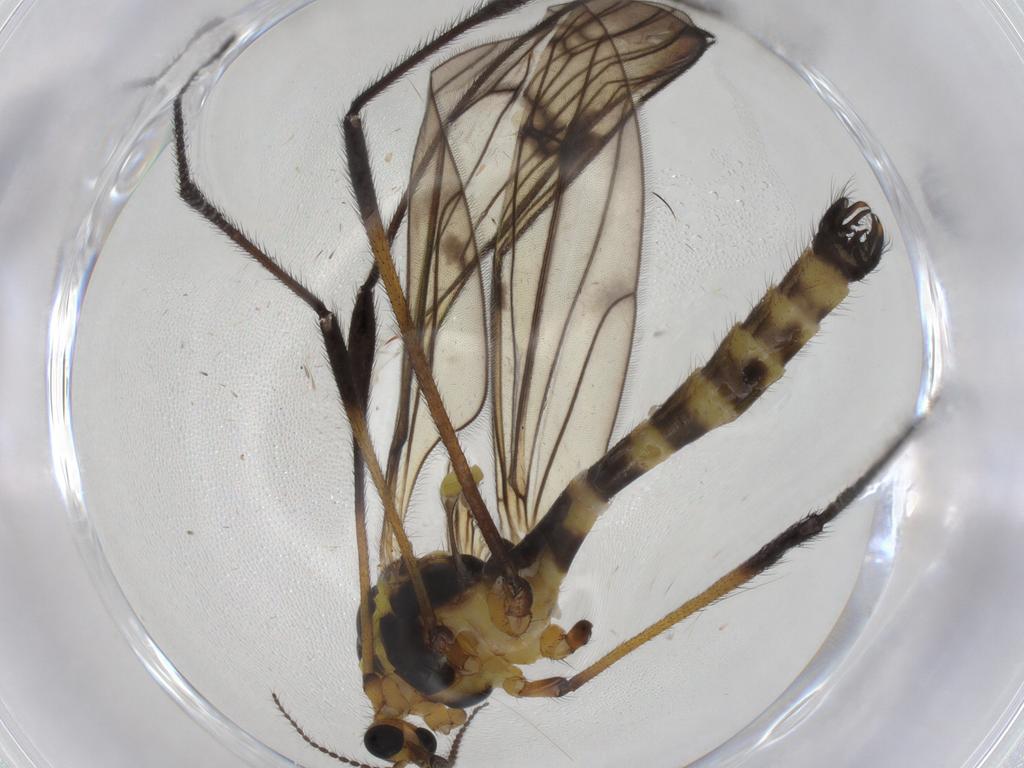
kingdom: Animalia
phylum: Arthropoda
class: Insecta
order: Diptera
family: Limoniidae
